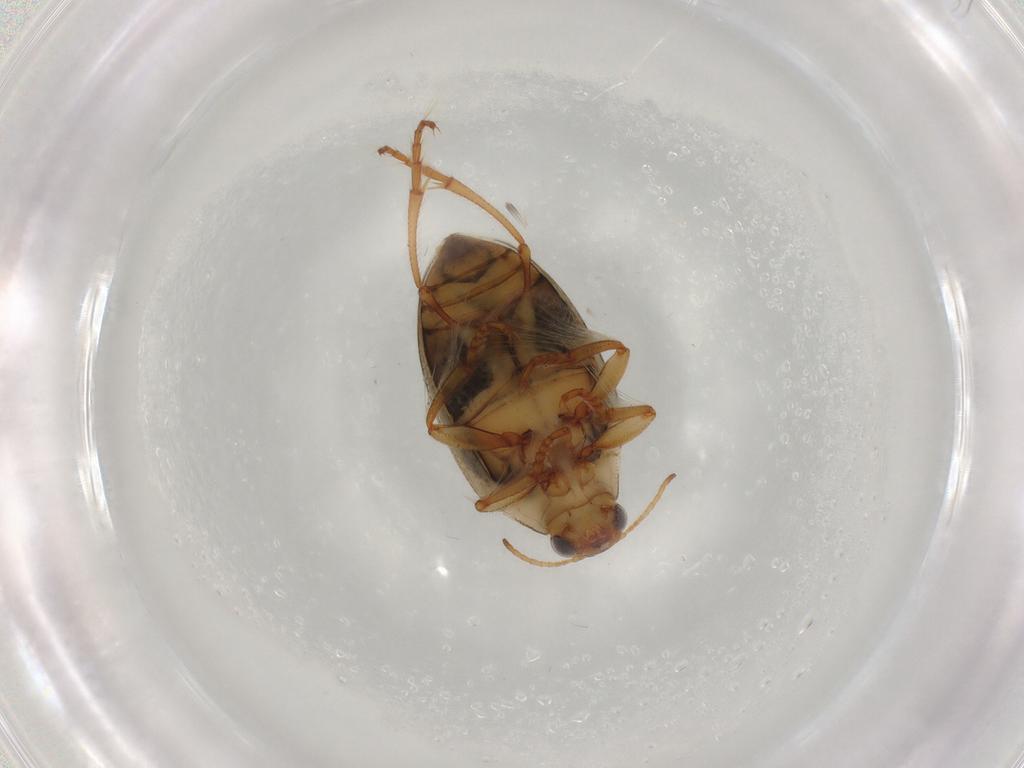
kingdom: Animalia
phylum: Arthropoda
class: Insecta
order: Coleoptera
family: Haliplidae
